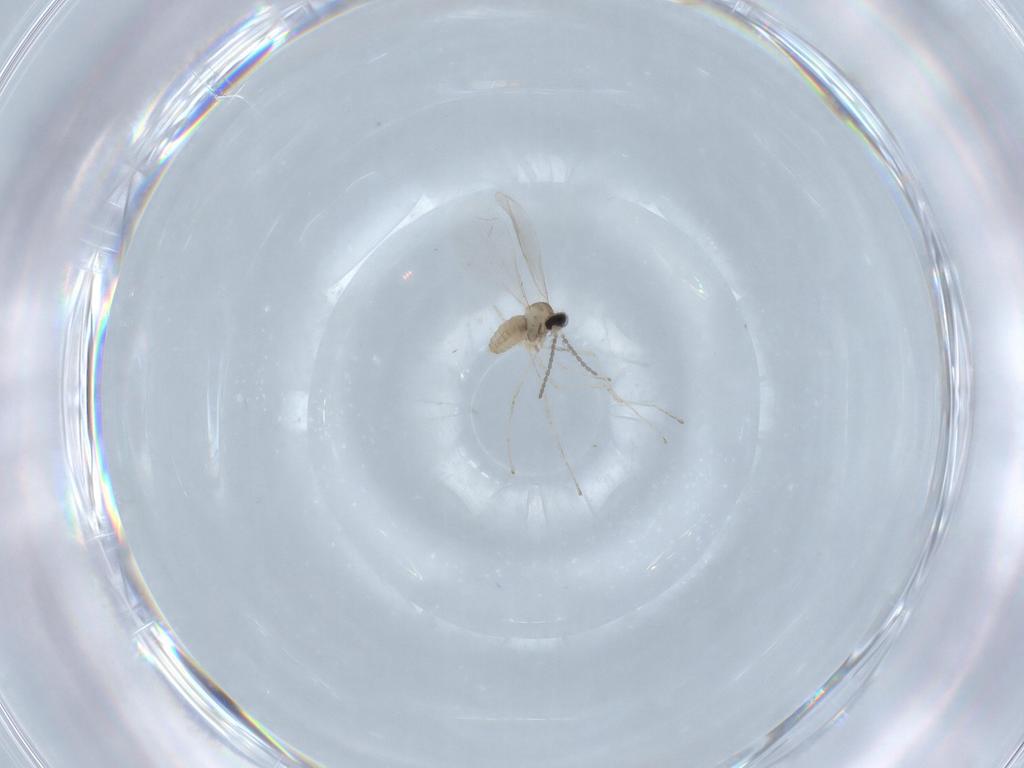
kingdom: Animalia
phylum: Arthropoda
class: Insecta
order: Diptera
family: Cecidomyiidae
